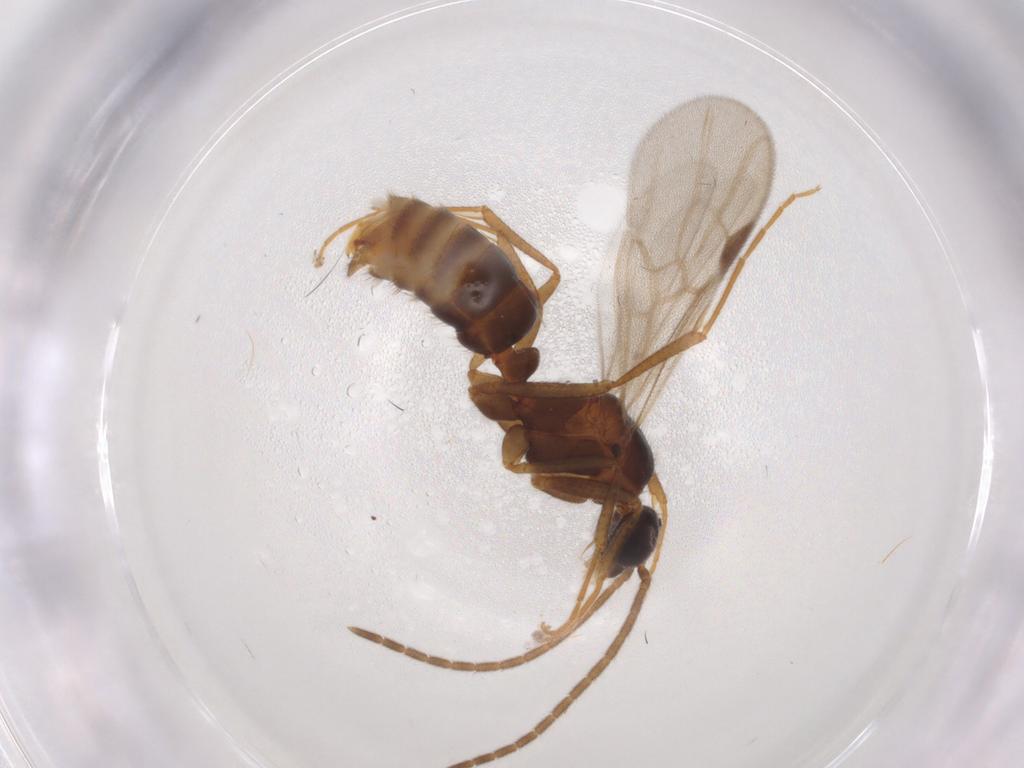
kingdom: Animalia
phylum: Arthropoda
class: Insecta
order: Hymenoptera
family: Formicidae
